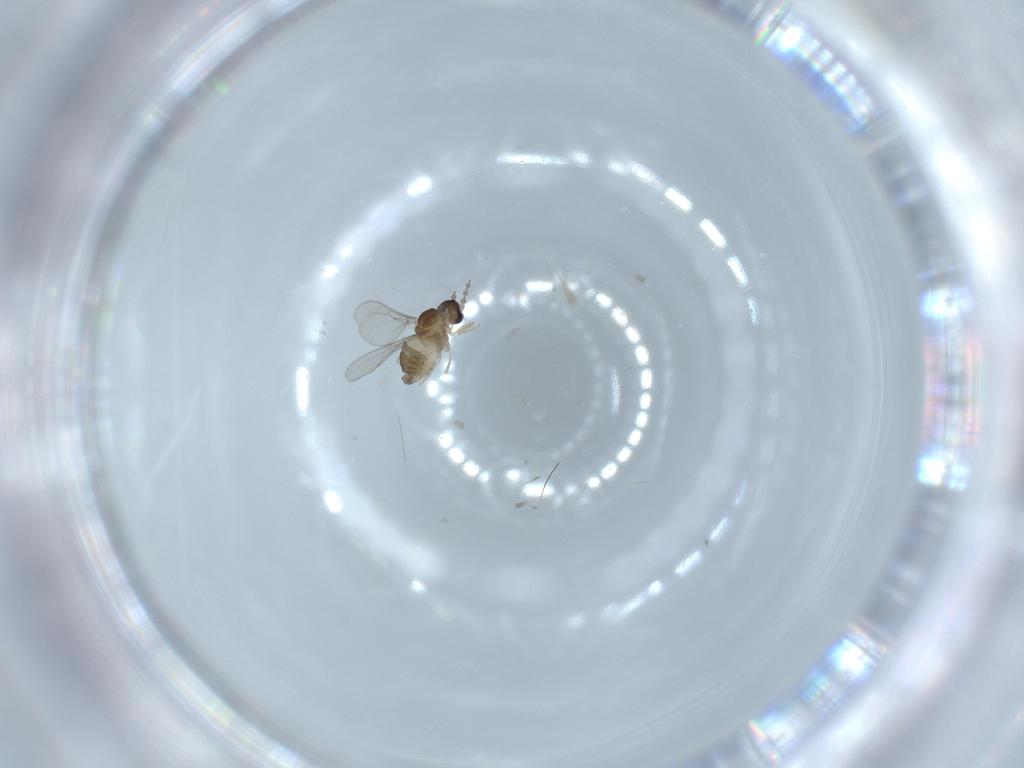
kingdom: Animalia
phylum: Arthropoda
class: Insecta
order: Diptera
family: Cecidomyiidae
